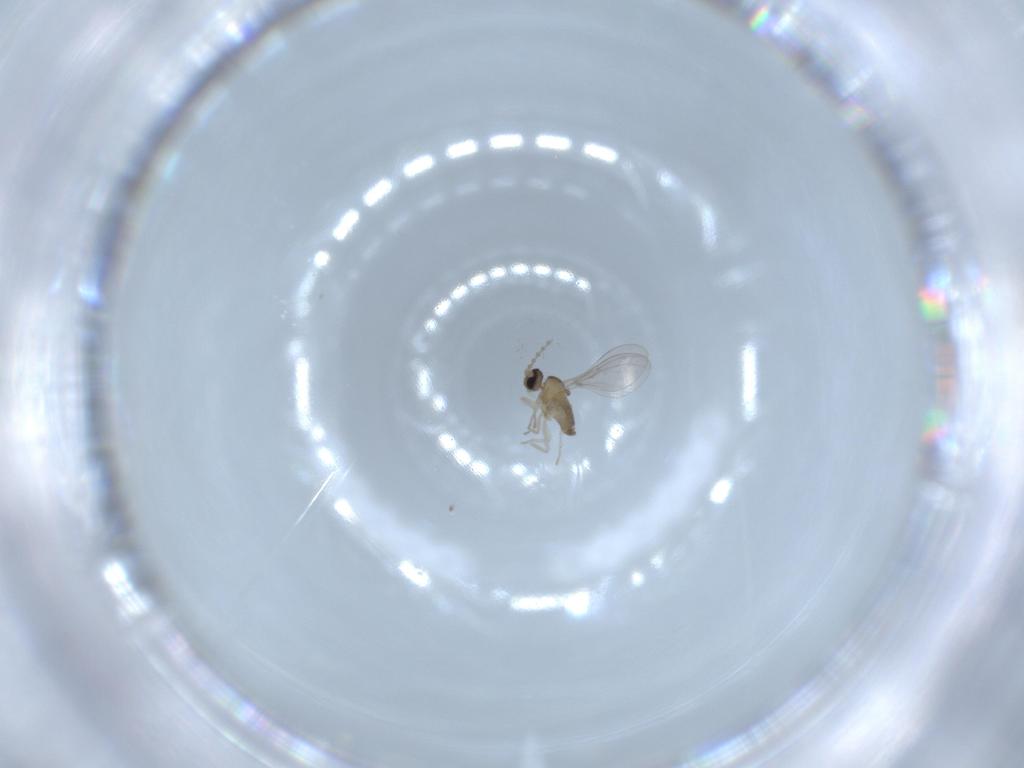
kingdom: Animalia
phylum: Arthropoda
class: Insecta
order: Diptera
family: Cecidomyiidae
